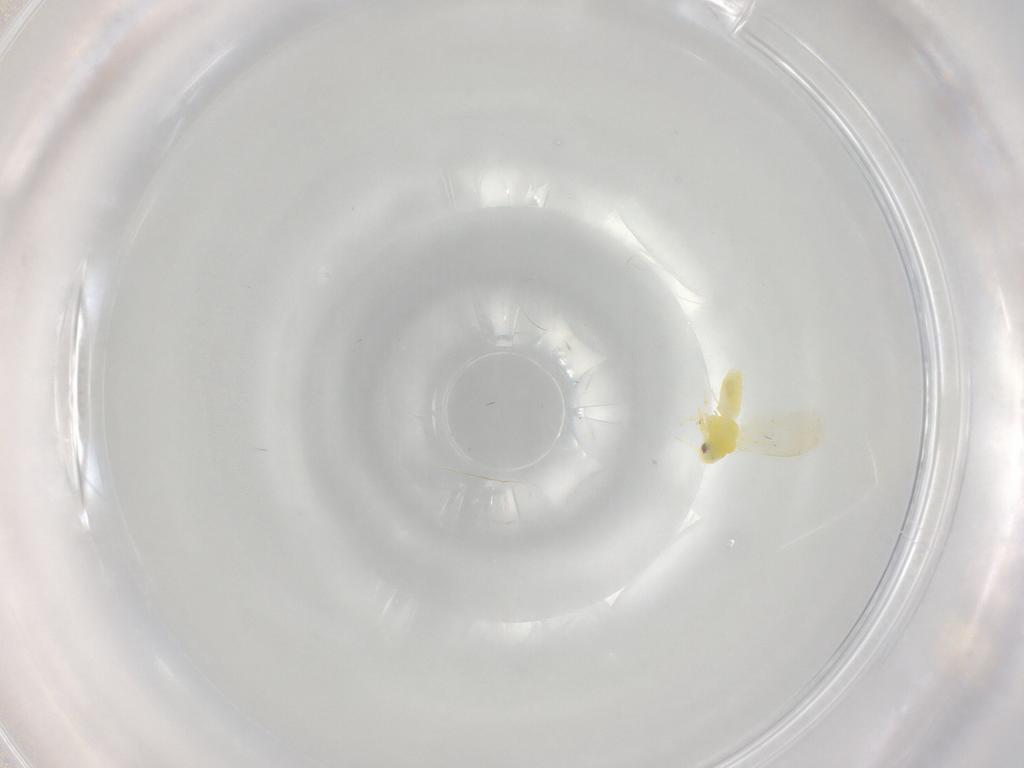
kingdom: Animalia
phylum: Arthropoda
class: Insecta
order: Hemiptera
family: Aleyrodidae
